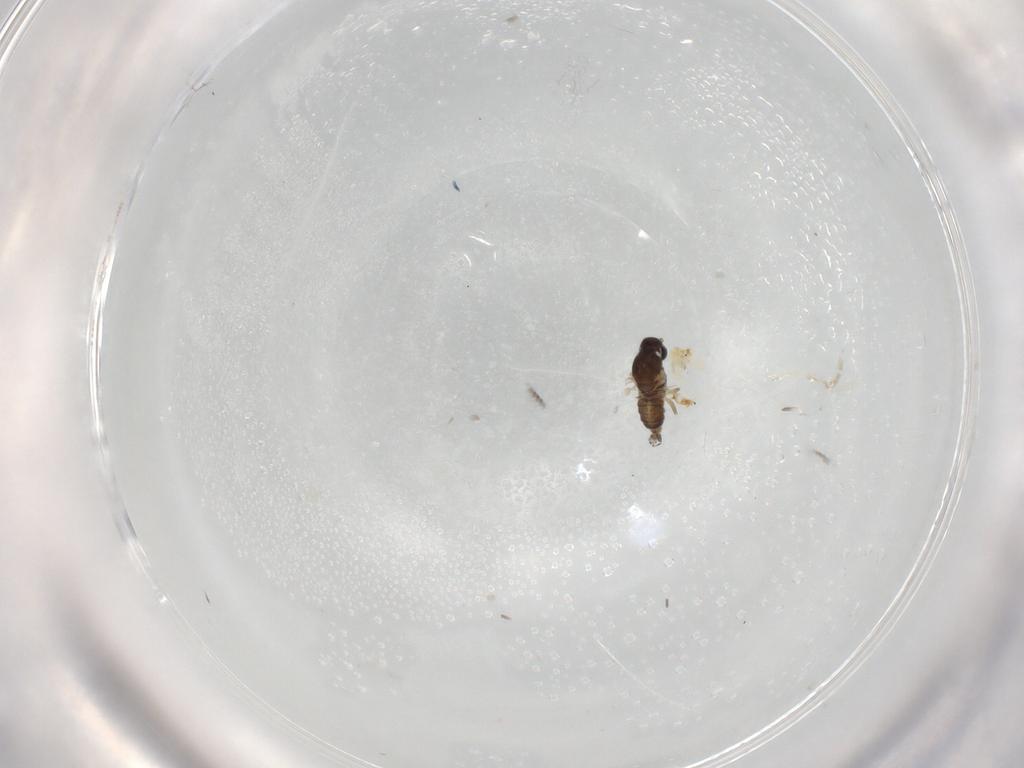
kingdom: Animalia
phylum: Arthropoda
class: Insecta
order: Diptera
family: Cecidomyiidae
